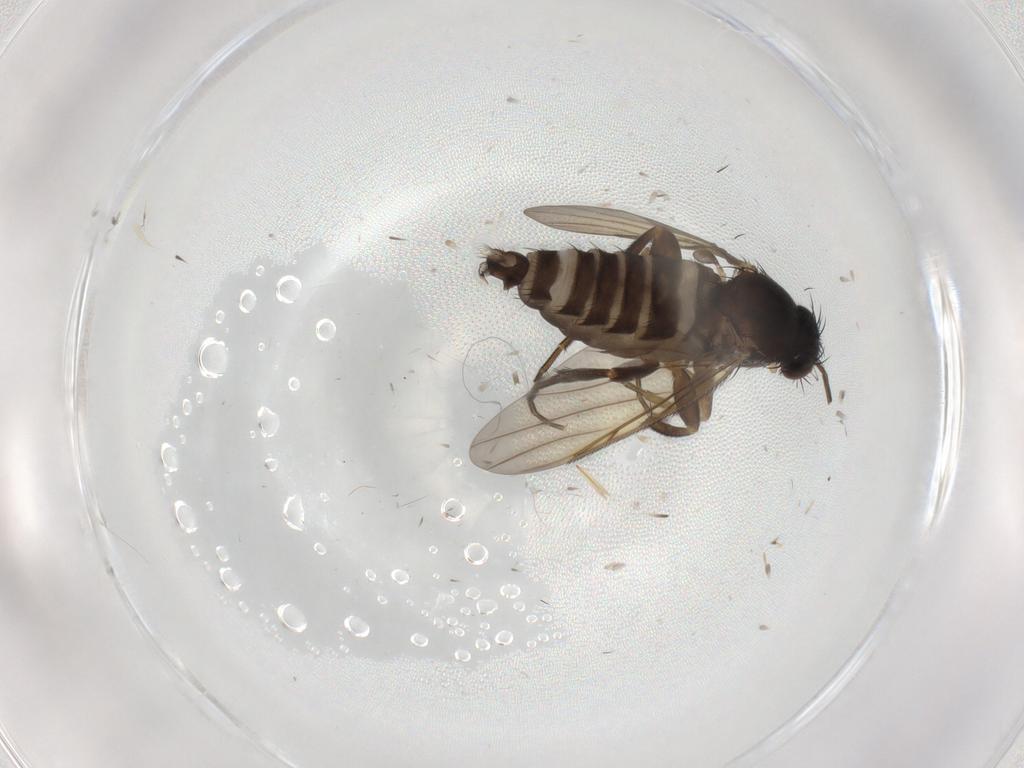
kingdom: Animalia
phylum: Arthropoda
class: Insecta
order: Diptera
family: Phoridae
